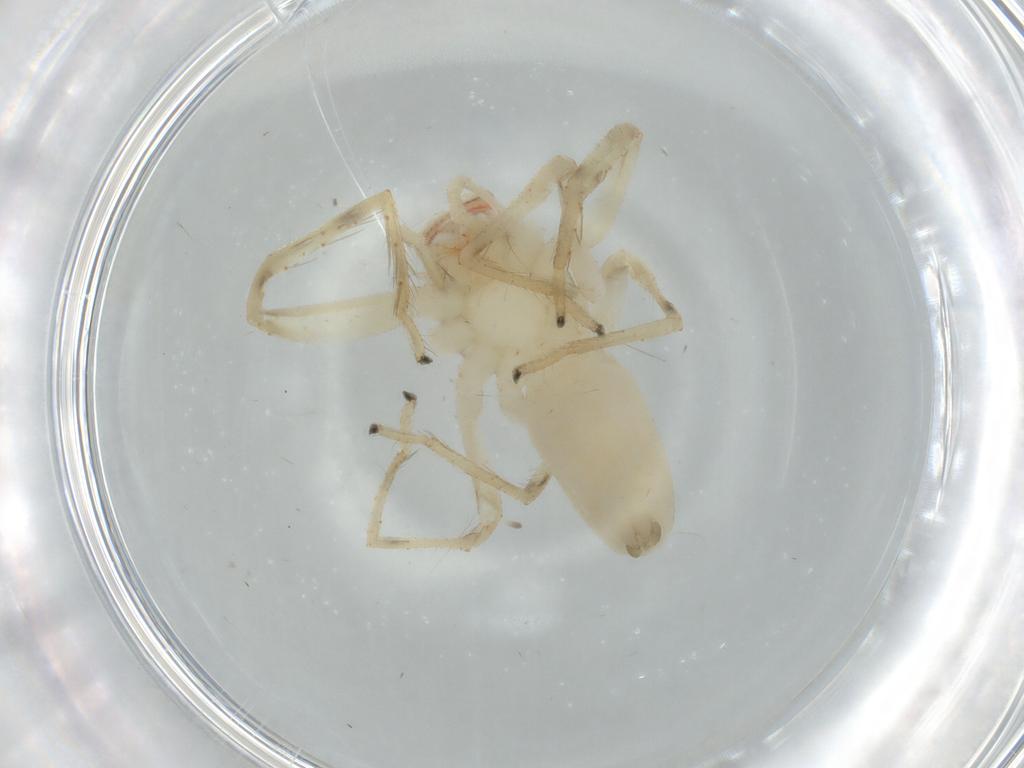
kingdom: Animalia
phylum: Arthropoda
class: Arachnida
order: Araneae
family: Salticidae
